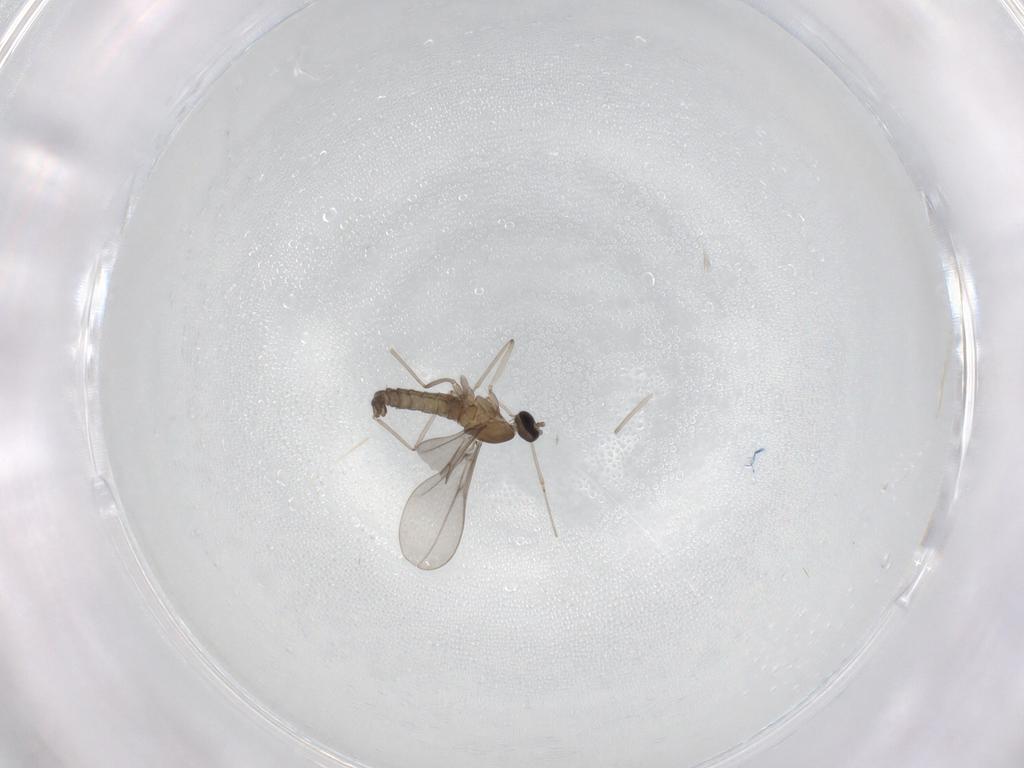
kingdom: Animalia
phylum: Arthropoda
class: Insecta
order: Diptera
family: Cecidomyiidae
